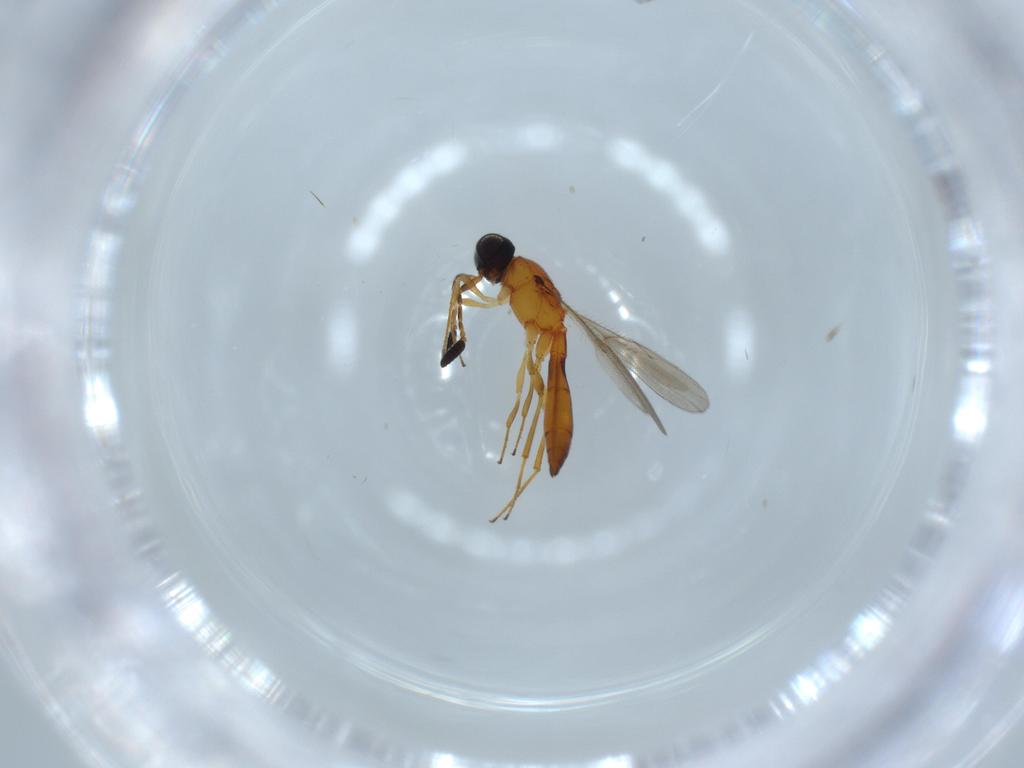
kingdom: Animalia
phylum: Arthropoda
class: Insecta
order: Hymenoptera
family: Scelionidae
